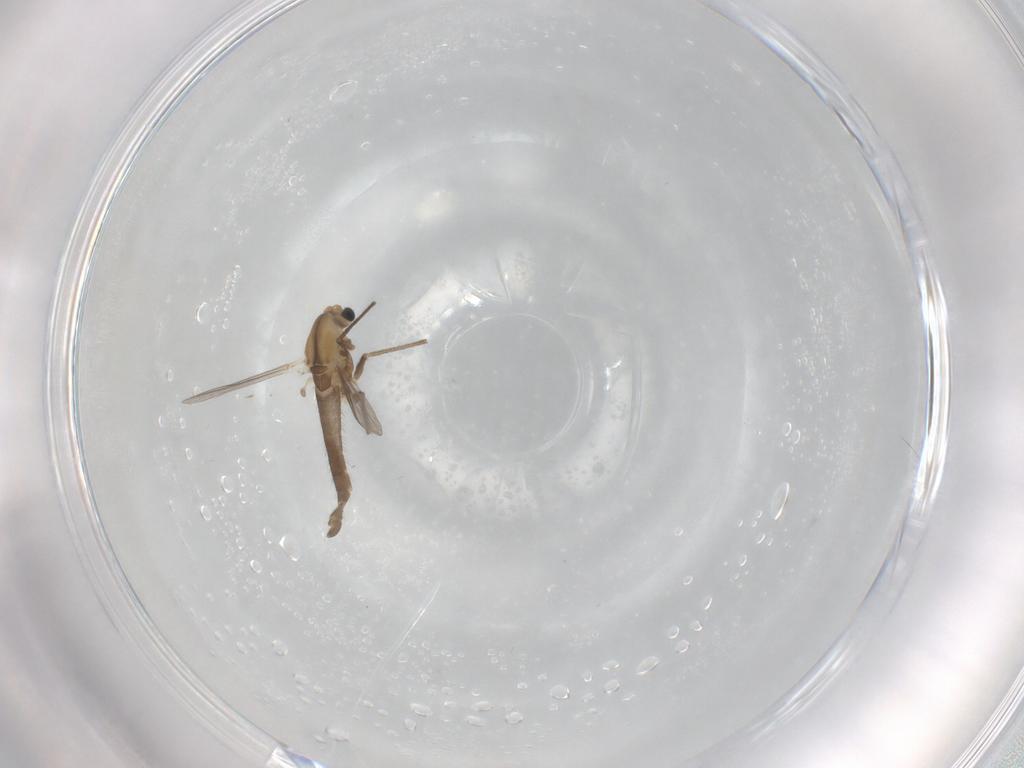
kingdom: Animalia
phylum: Arthropoda
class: Insecta
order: Diptera
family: Chironomidae
